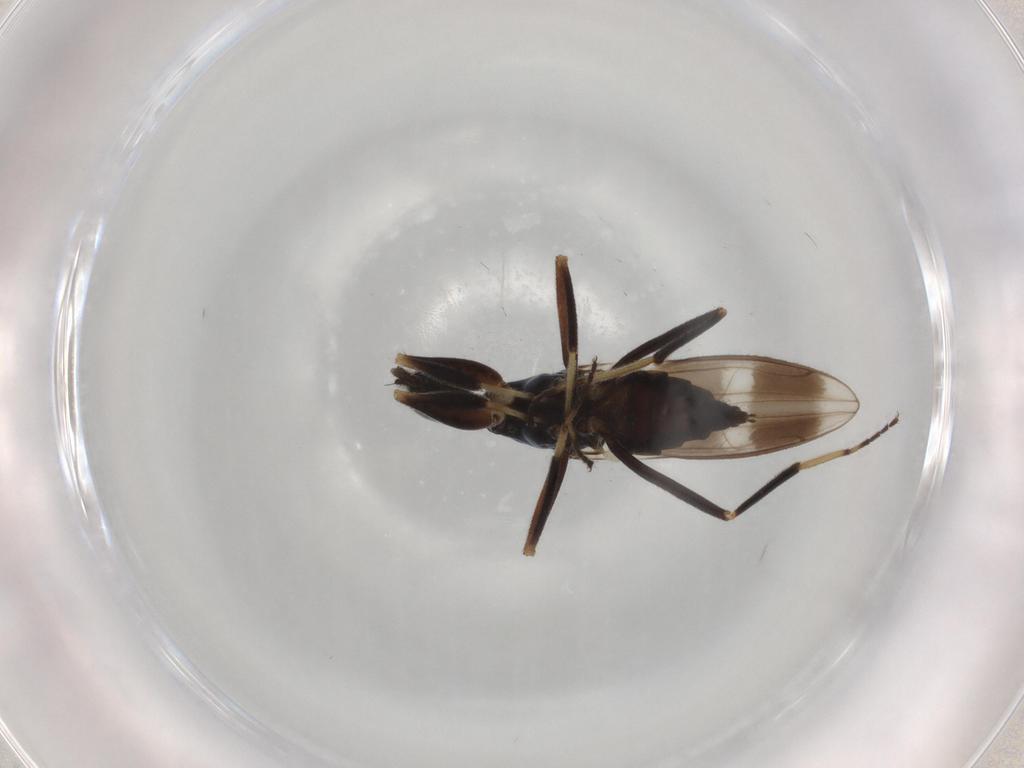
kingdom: Animalia
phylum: Arthropoda
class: Insecta
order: Diptera
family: Hybotidae
